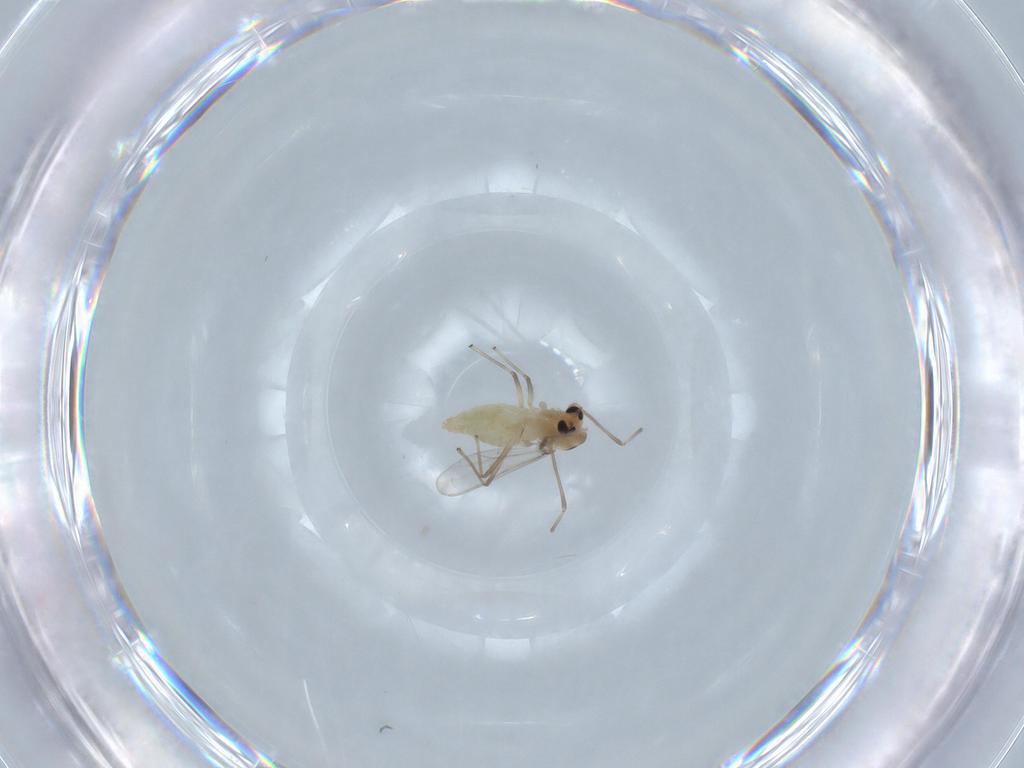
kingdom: Animalia
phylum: Arthropoda
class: Insecta
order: Diptera
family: Chironomidae
